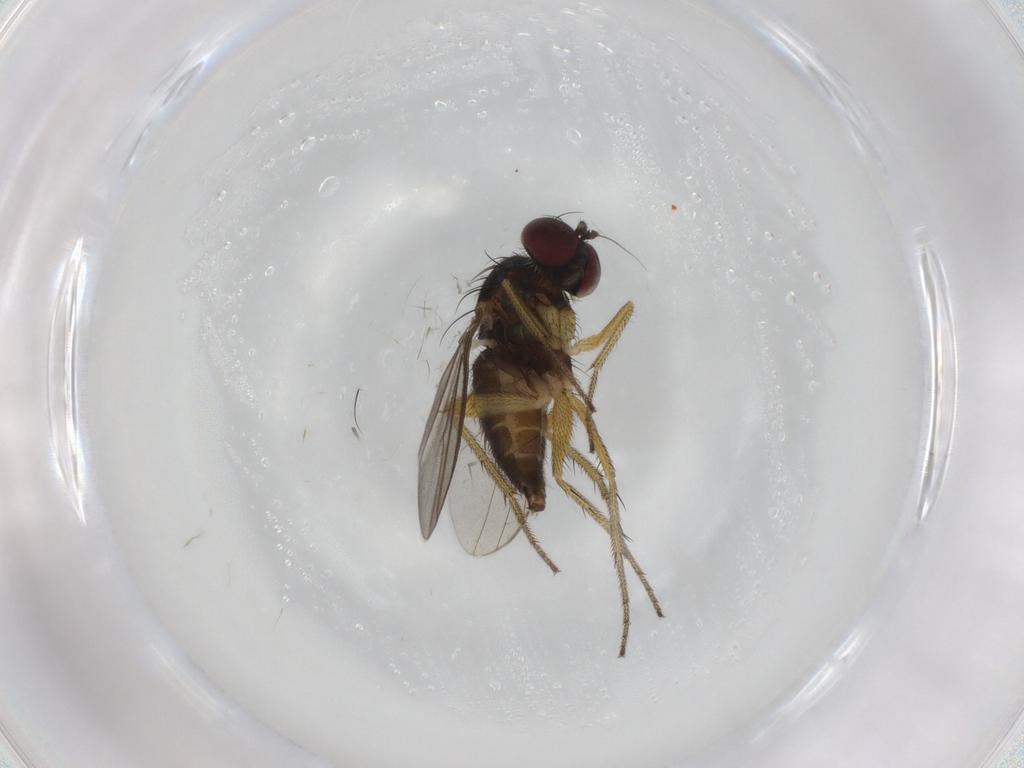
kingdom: Animalia
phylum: Arthropoda
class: Insecta
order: Diptera
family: Dolichopodidae
